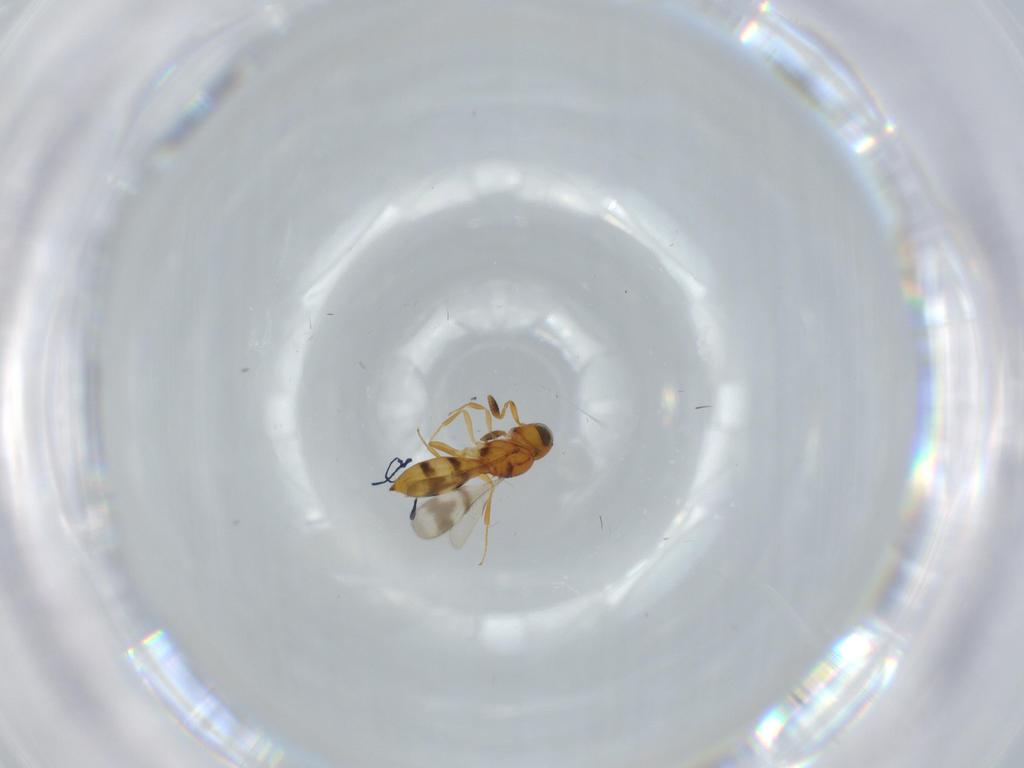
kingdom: Animalia
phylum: Arthropoda
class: Insecta
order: Hymenoptera
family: Scelionidae
